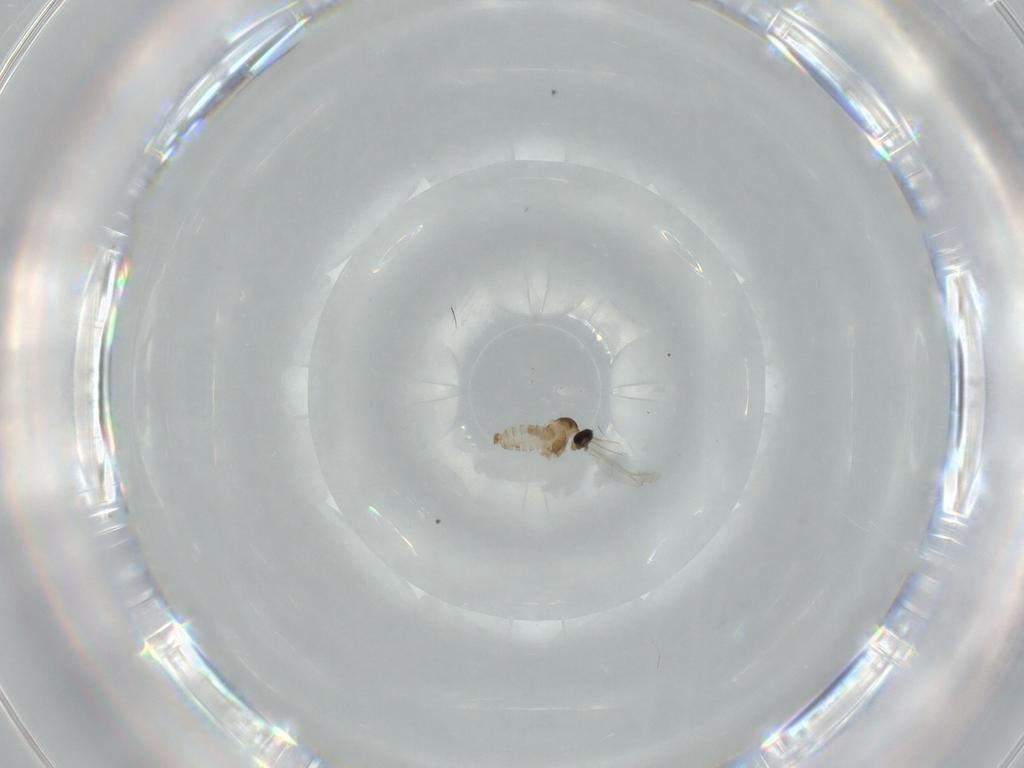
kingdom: Animalia
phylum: Arthropoda
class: Insecta
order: Diptera
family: Cecidomyiidae
